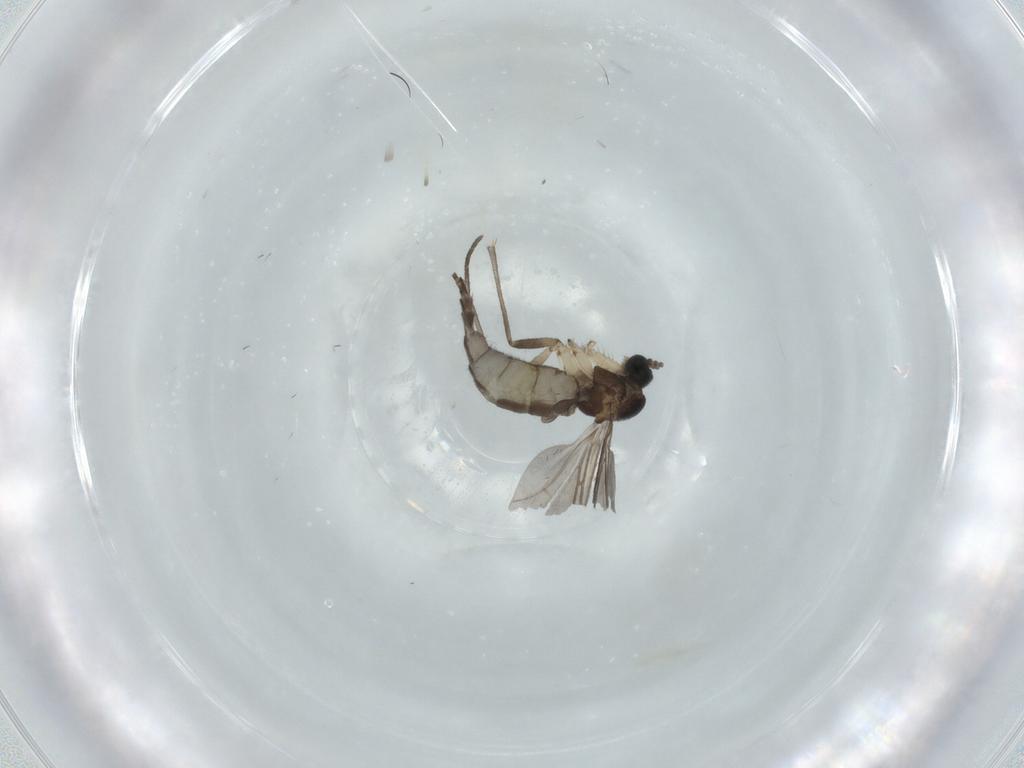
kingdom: Animalia
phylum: Arthropoda
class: Insecta
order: Diptera
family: Sciaridae
